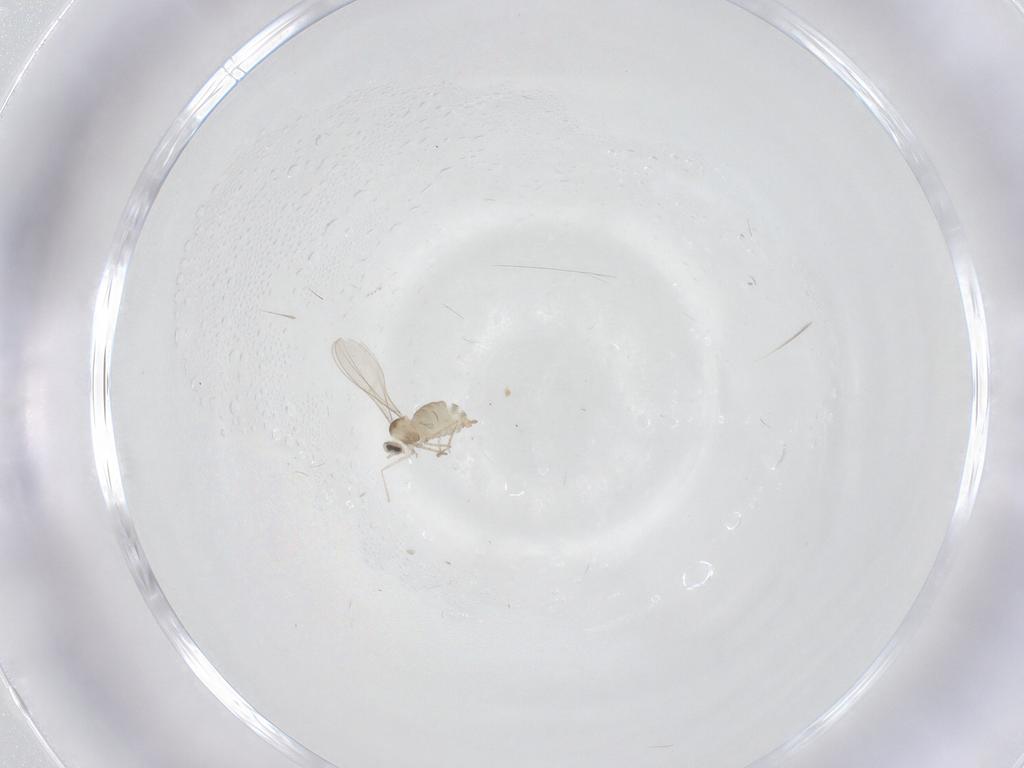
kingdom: Animalia
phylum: Arthropoda
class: Insecta
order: Diptera
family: Cecidomyiidae
